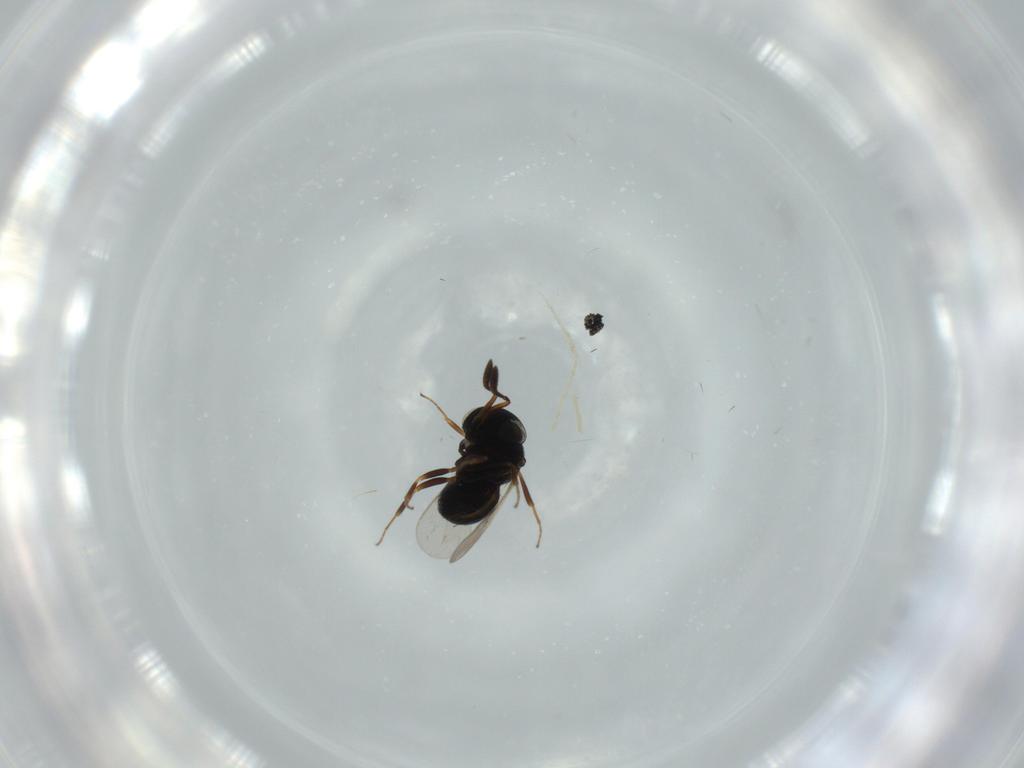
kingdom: Animalia
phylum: Arthropoda
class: Insecta
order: Hymenoptera
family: Scelionidae
